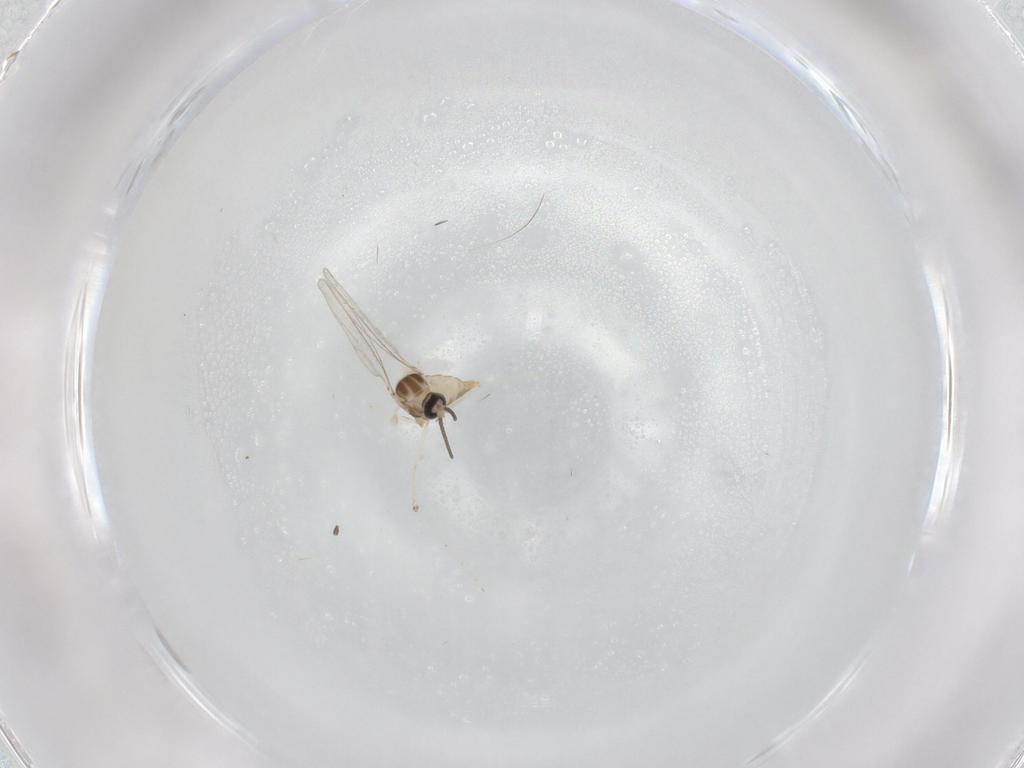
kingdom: Animalia
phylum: Arthropoda
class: Insecta
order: Diptera
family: Cecidomyiidae
